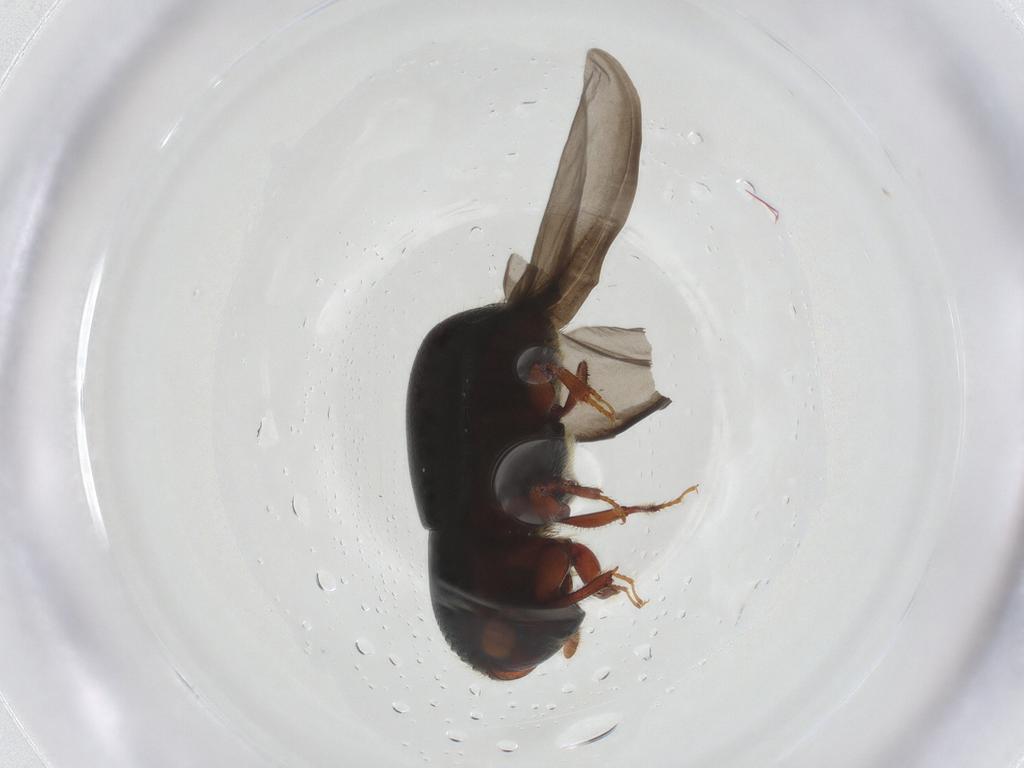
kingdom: Animalia
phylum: Arthropoda
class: Insecta
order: Coleoptera
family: Curculionidae
